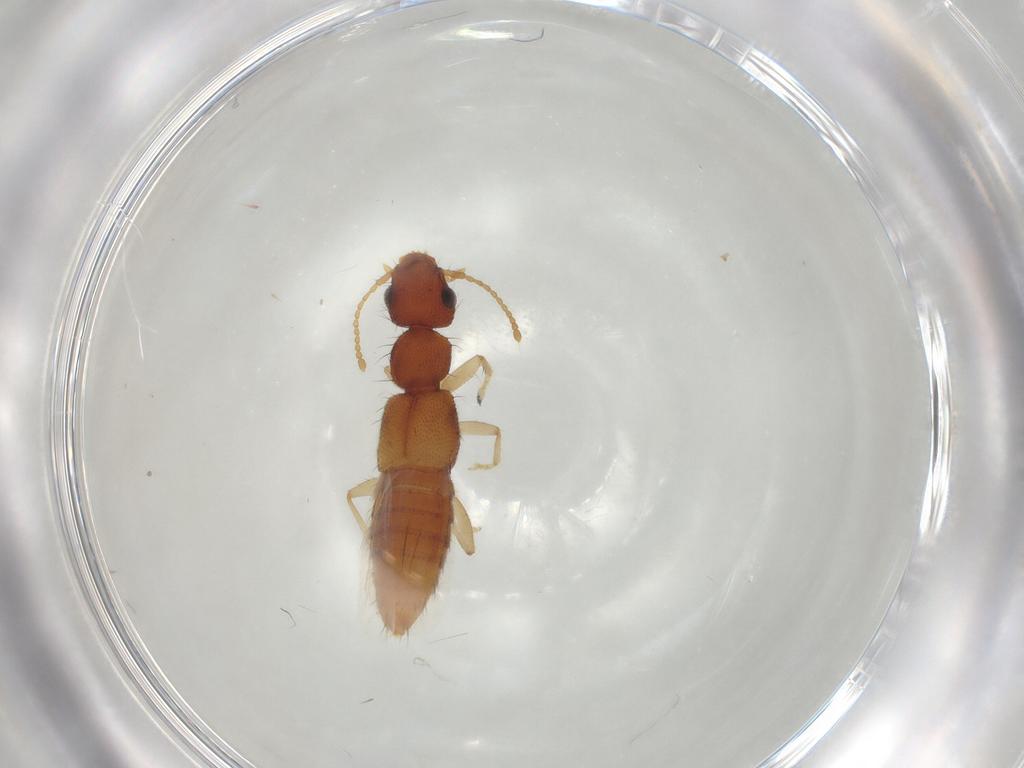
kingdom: Animalia
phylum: Arthropoda
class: Insecta
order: Coleoptera
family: Staphylinidae
